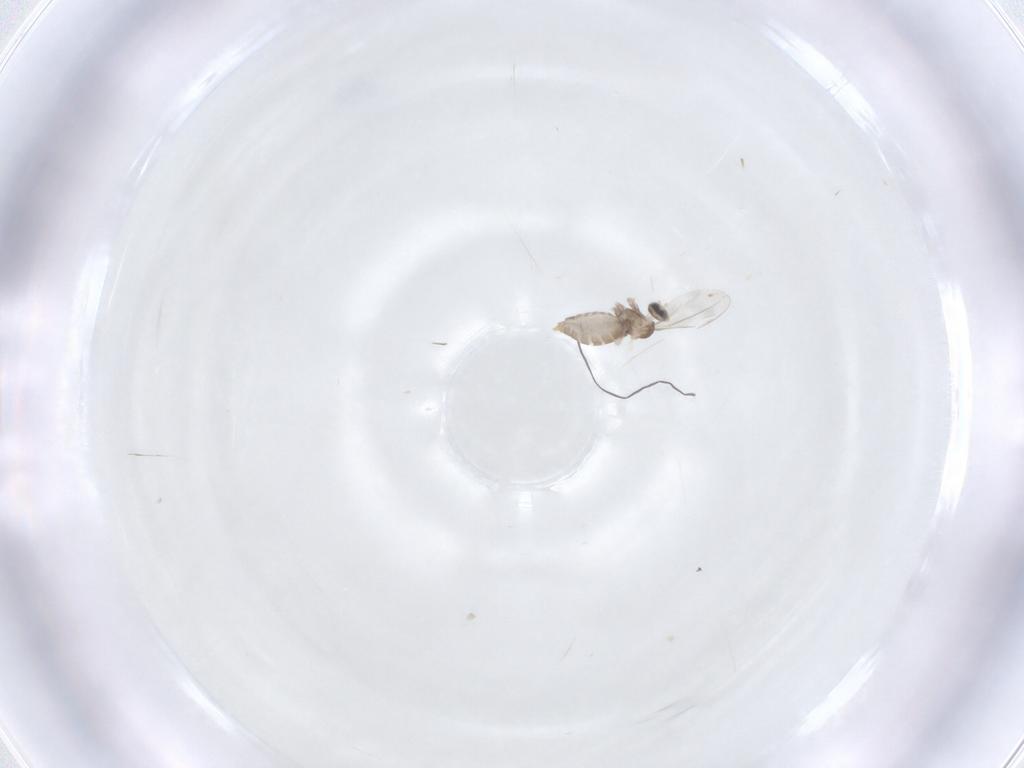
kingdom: Animalia
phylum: Arthropoda
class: Insecta
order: Diptera
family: Cecidomyiidae
